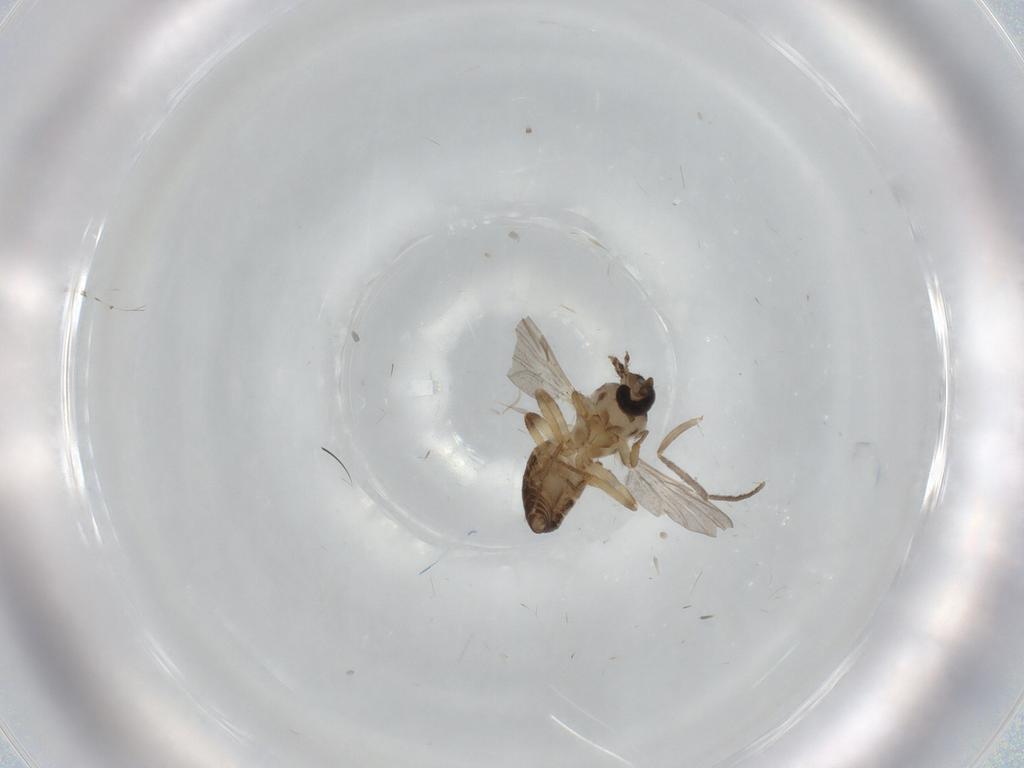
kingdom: Animalia
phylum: Arthropoda
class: Insecta
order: Diptera
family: Ceratopogonidae
